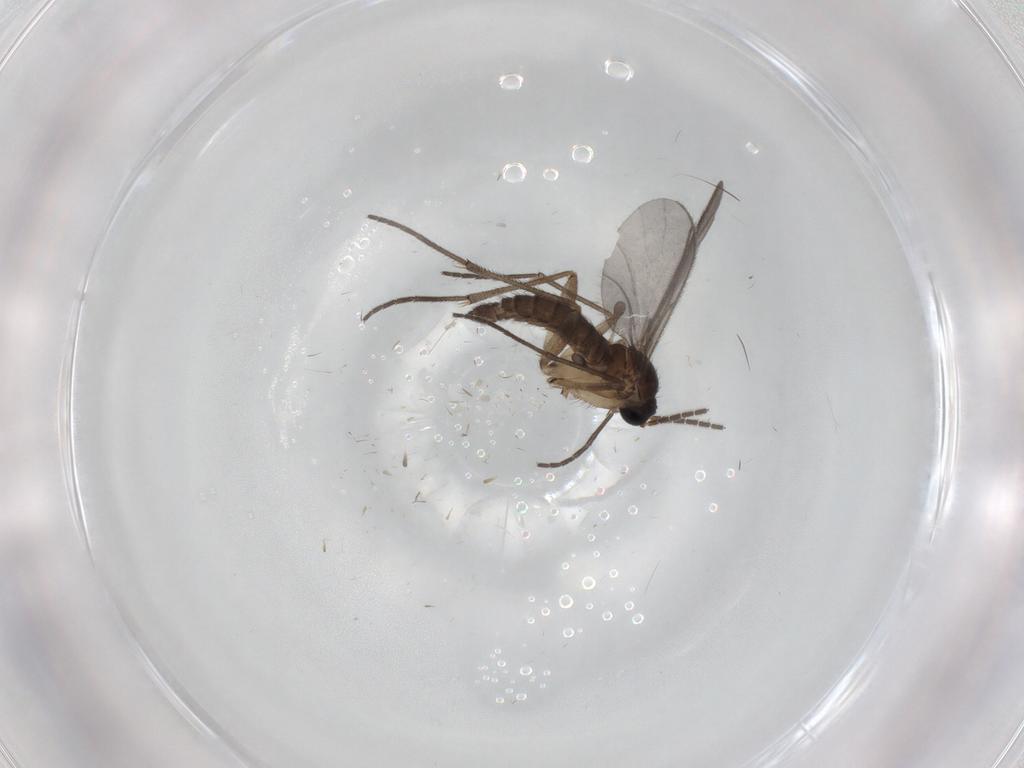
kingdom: Animalia
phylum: Arthropoda
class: Insecta
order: Diptera
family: Sciaridae
